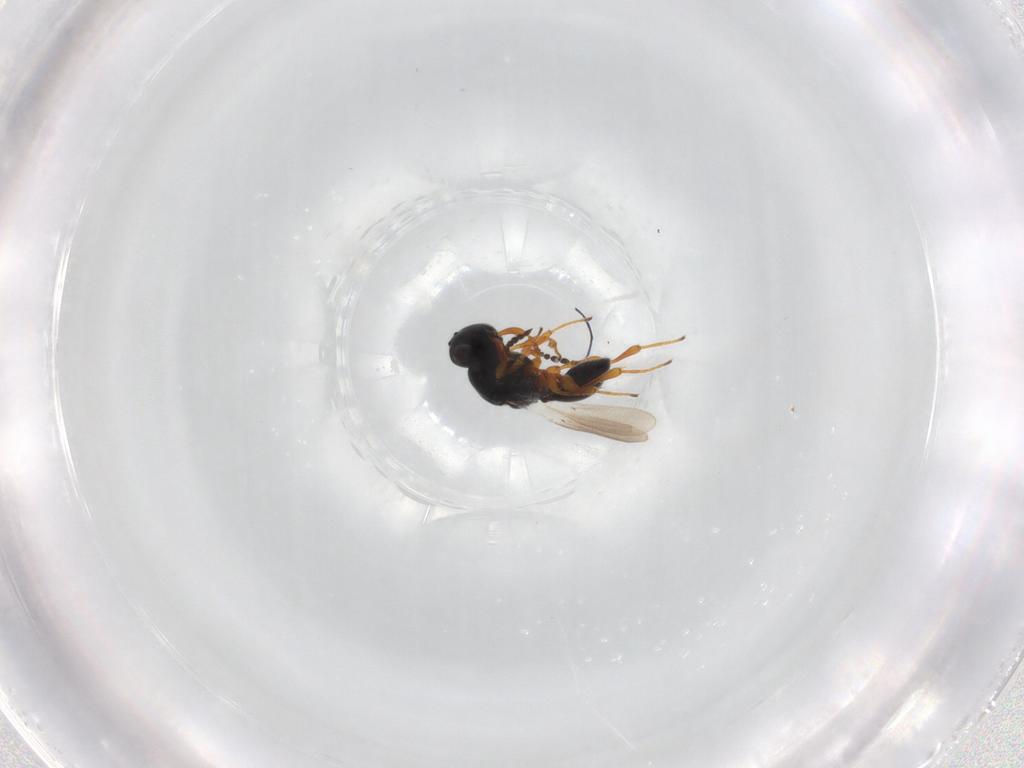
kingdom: Animalia
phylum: Arthropoda
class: Insecta
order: Hymenoptera
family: Platygastridae
